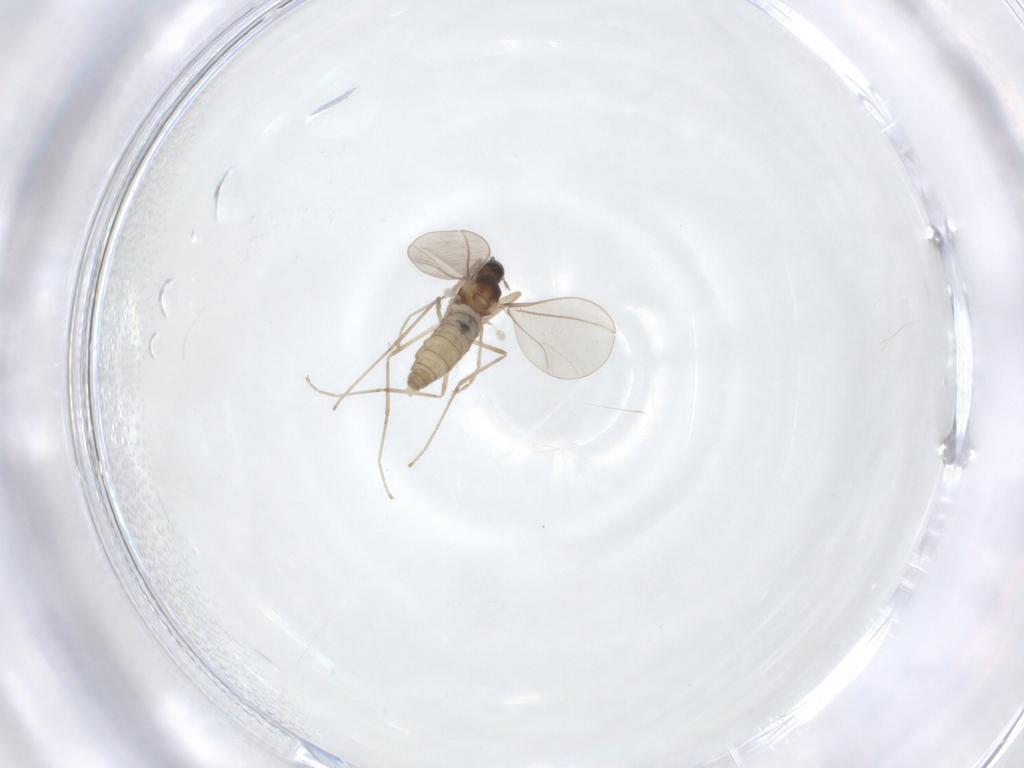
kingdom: Animalia
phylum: Arthropoda
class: Insecta
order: Diptera
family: Cecidomyiidae
